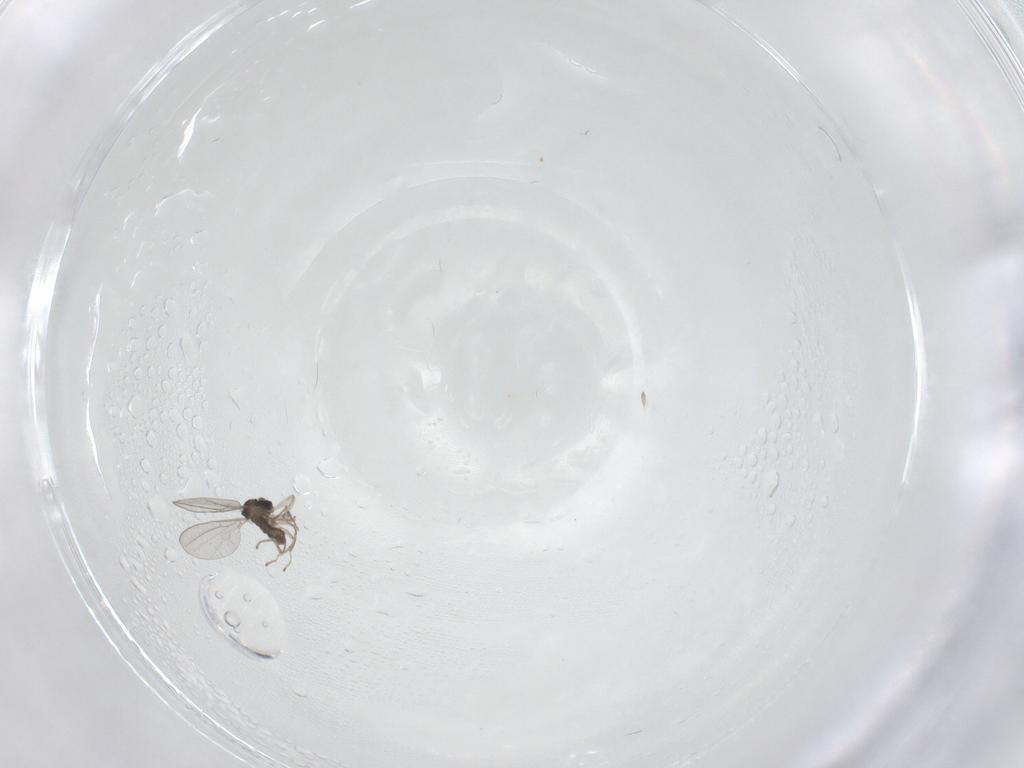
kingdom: Animalia
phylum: Arthropoda
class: Insecta
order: Diptera
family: Cecidomyiidae
